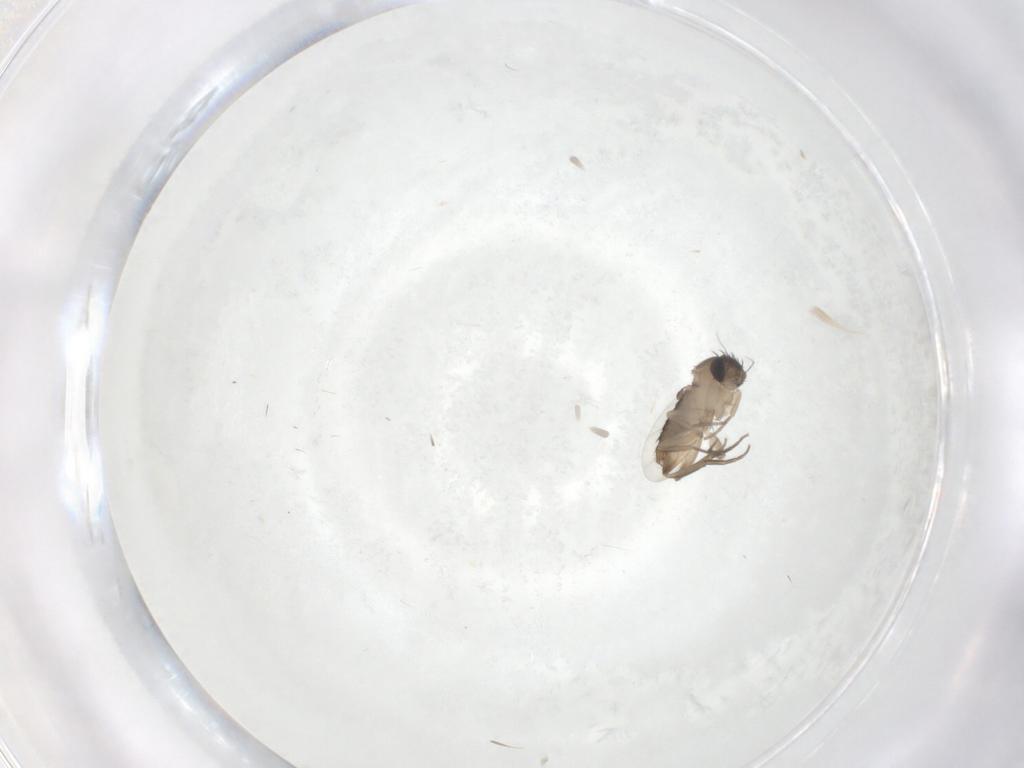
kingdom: Animalia
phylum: Arthropoda
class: Insecta
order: Diptera
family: Phoridae
